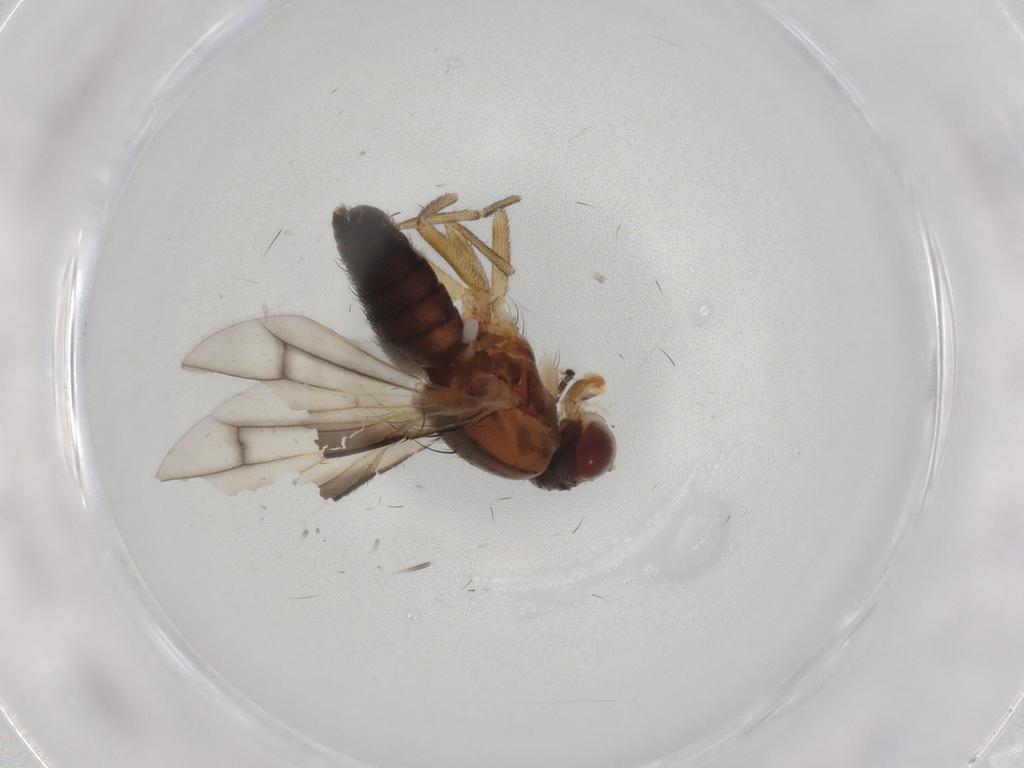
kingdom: Animalia
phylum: Arthropoda
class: Insecta
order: Diptera
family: Heleomyzidae
